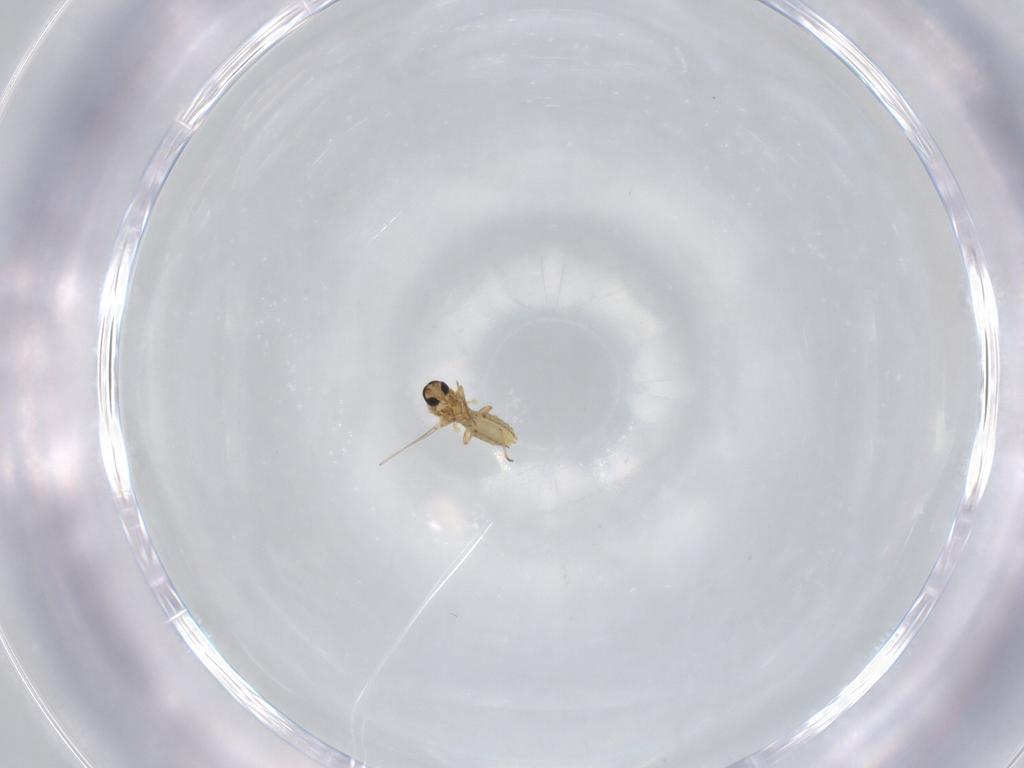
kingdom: Animalia
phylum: Arthropoda
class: Insecta
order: Diptera
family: Ceratopogonidae
